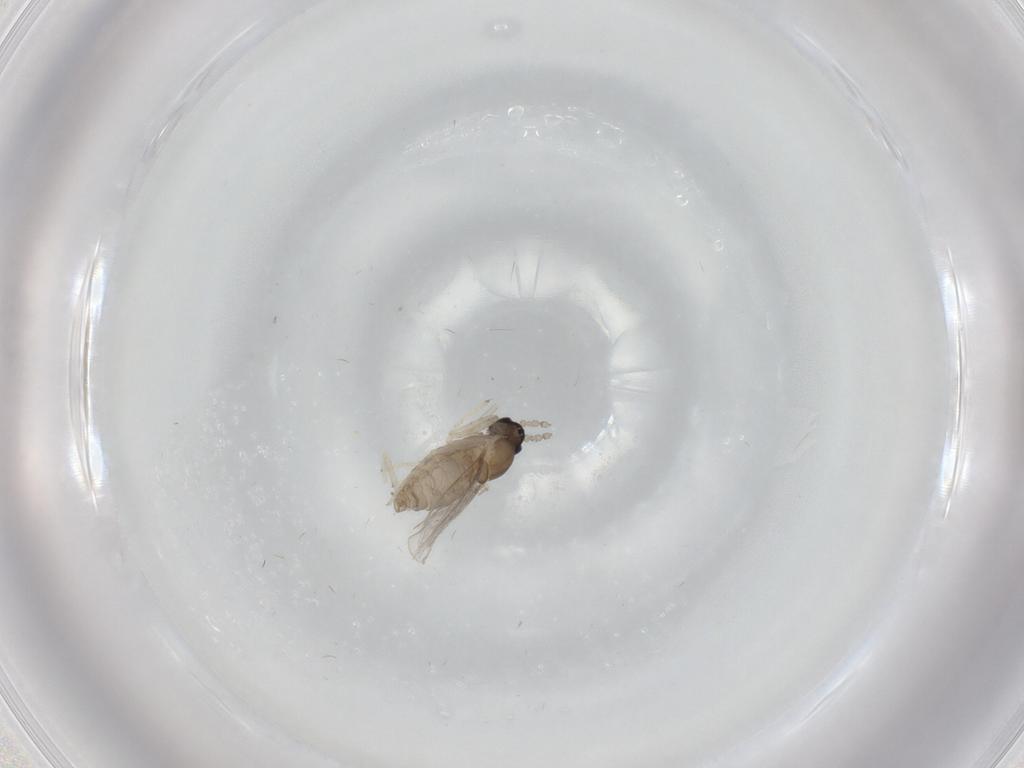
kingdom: Animalia
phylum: Arthropoda
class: Insecta
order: Diptera
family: Cecidomyiidae
